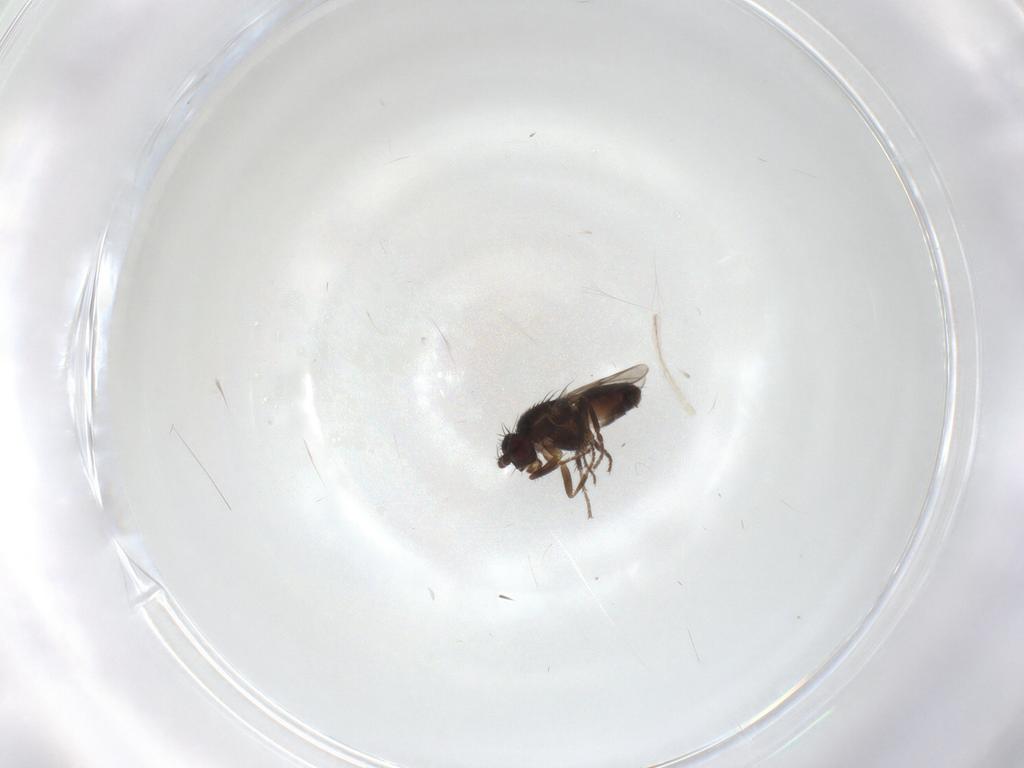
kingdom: Animalia
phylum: Arthropoda
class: Insecta
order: Diptera
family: Sphaeroceridae
